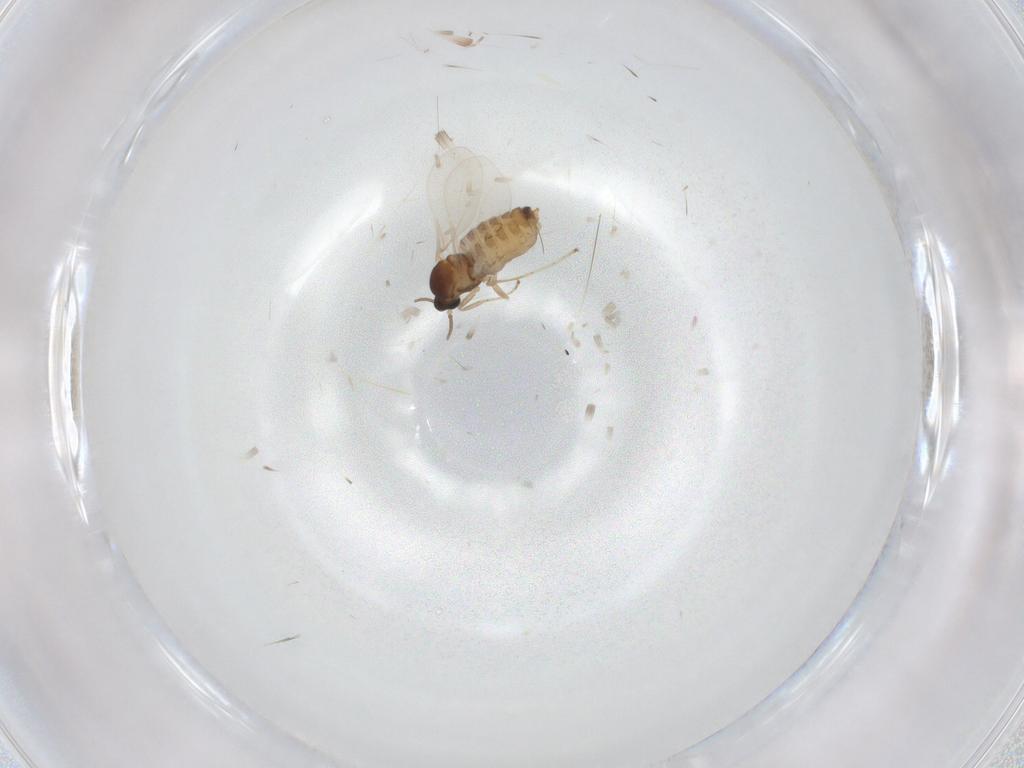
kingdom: Animalia
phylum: Arthropoda
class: Insecta
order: Diptera
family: Cecidomyiidae
